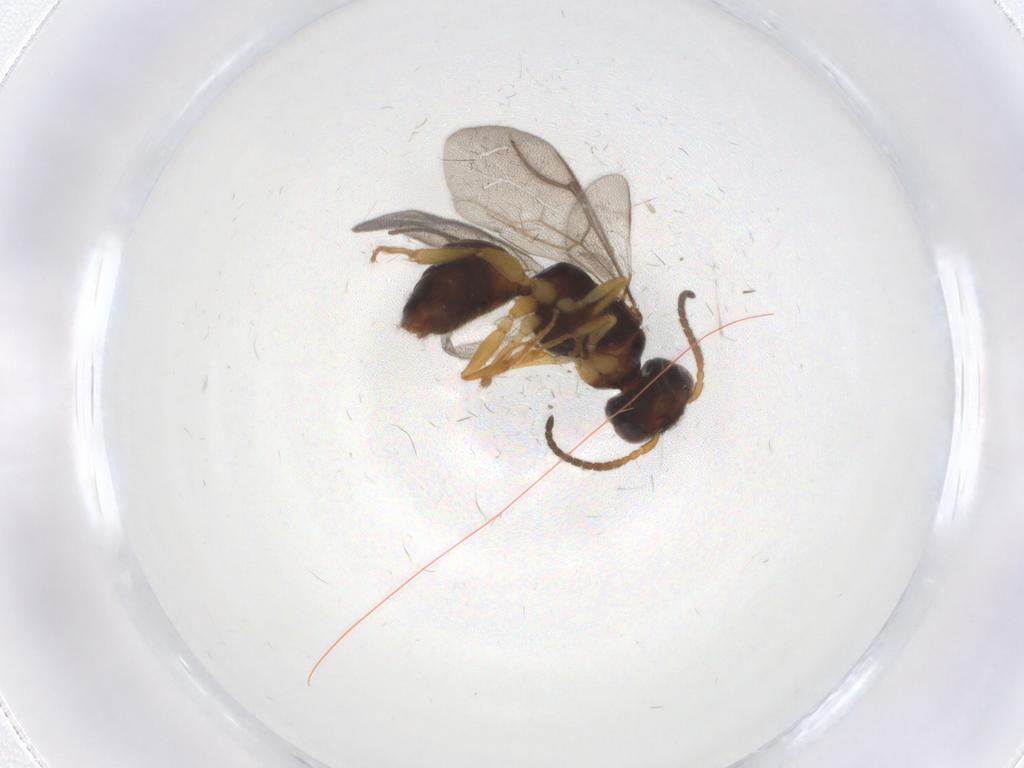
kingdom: Animalia
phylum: Arthropoda
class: Insecta
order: Hymenoptera
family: Bethylidae
